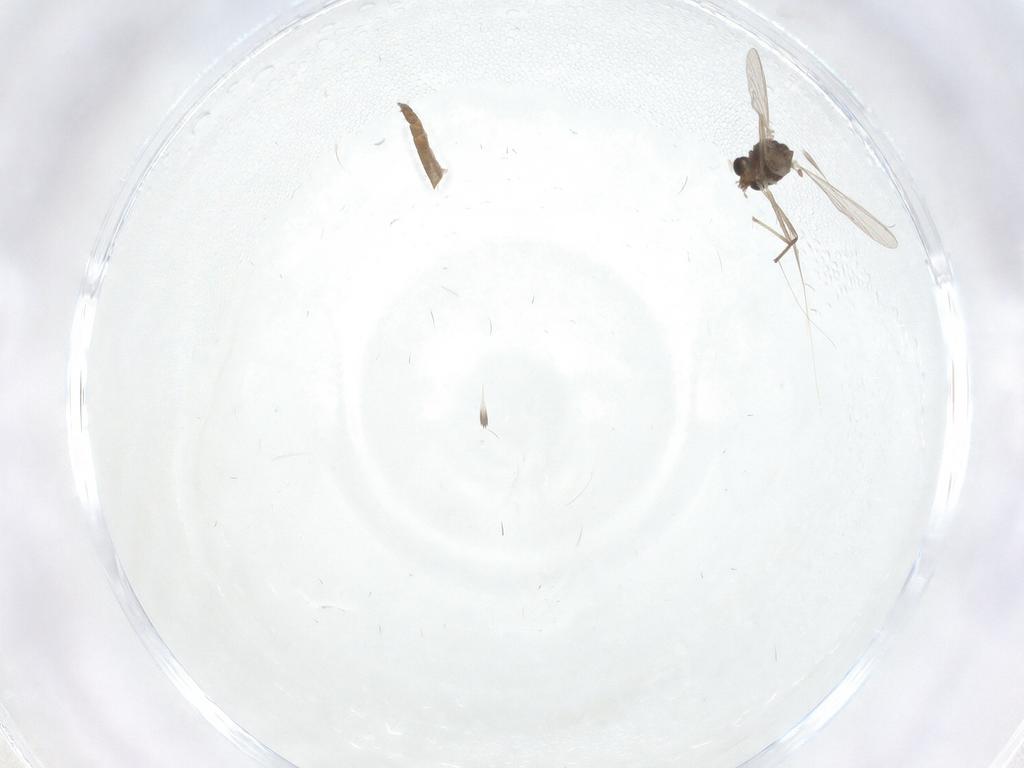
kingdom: Animalia
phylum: Arthropoda
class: Insecta
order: Diptera
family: Chironomidae
